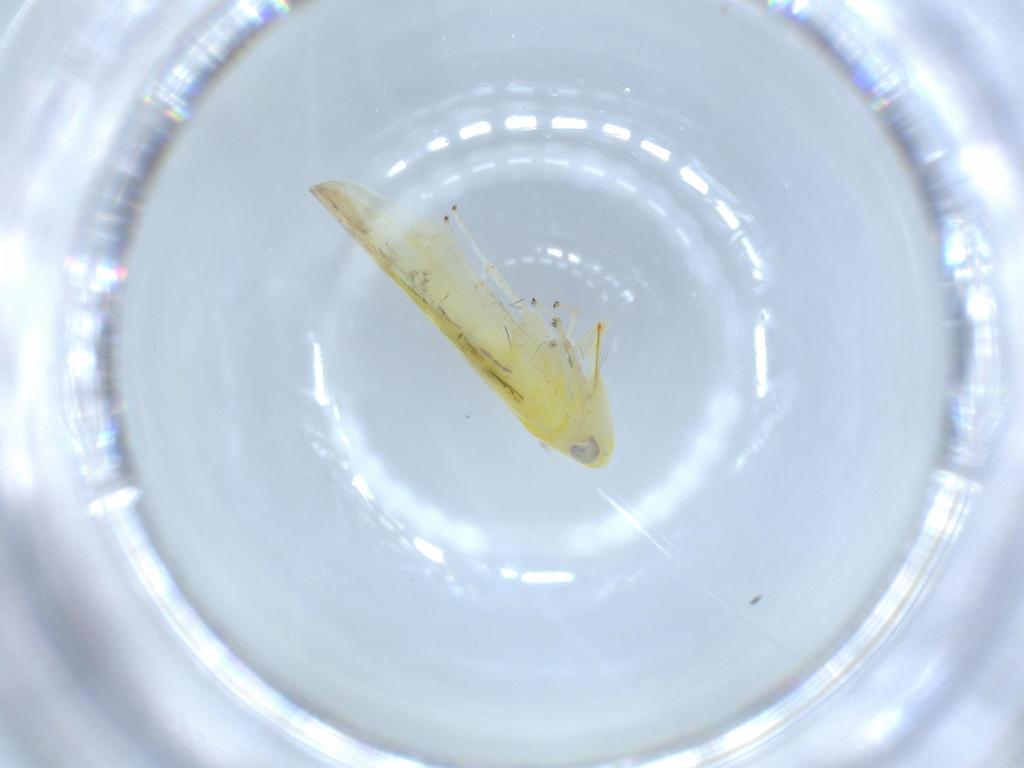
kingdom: Animalia
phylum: Arthropoda
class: Insecta
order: Hemiptera
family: Cicadellidae
